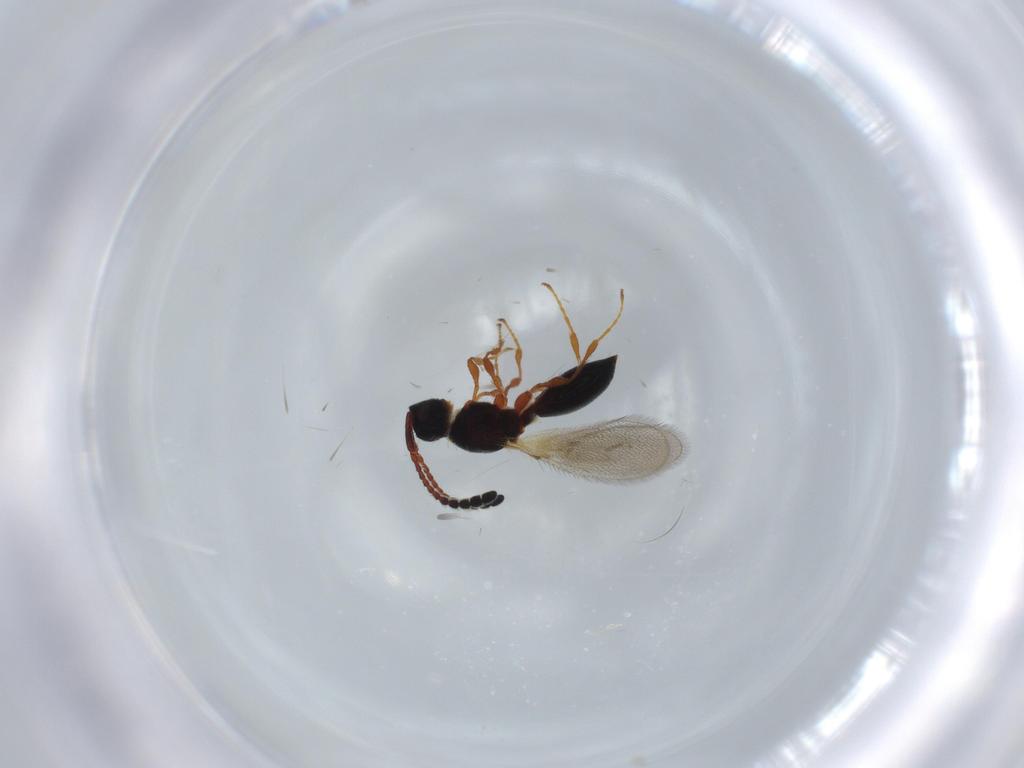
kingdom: Animalia
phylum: Arthropoda
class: Insecta
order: Hymenoptera
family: Diapriidae
